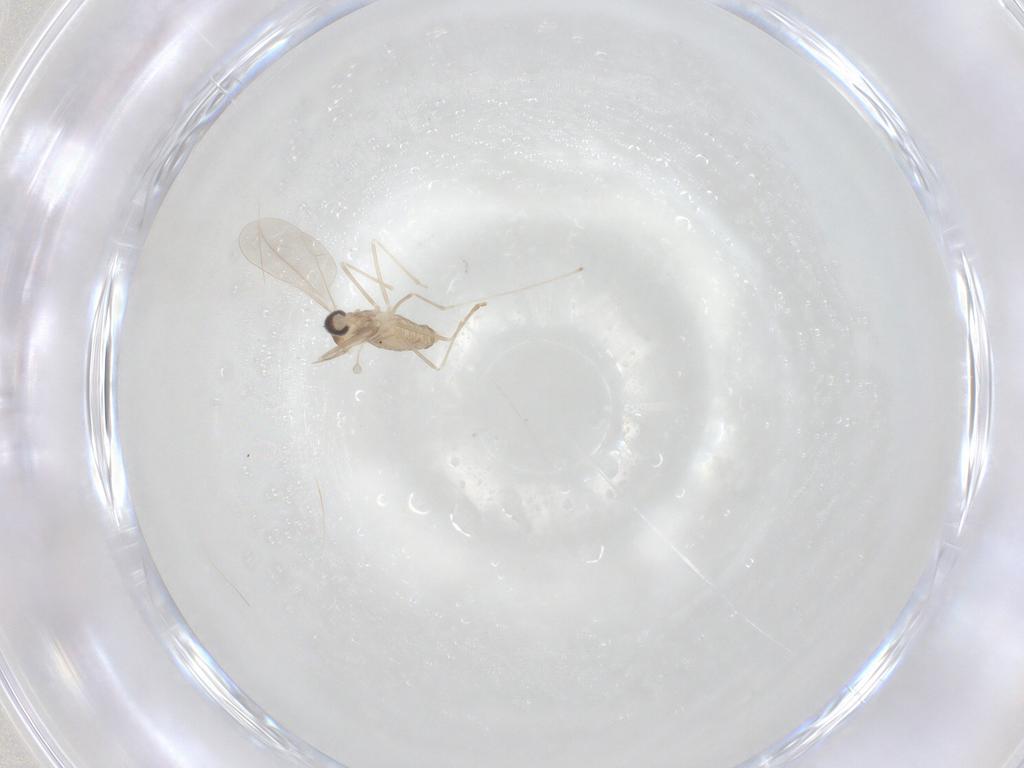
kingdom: Animalia
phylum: Arthropoda
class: Insecta
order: Diptera
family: Cecidomyiidae
